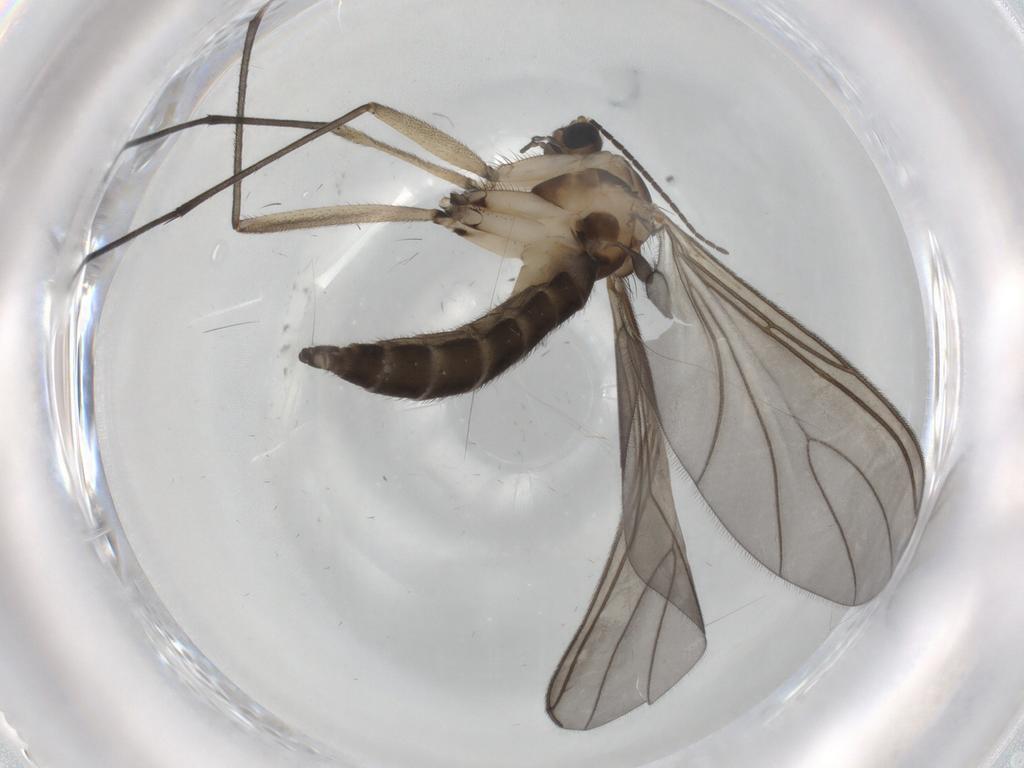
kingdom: Animalia
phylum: Arthropoda
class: Insecta
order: Diptera
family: Sciaridae
